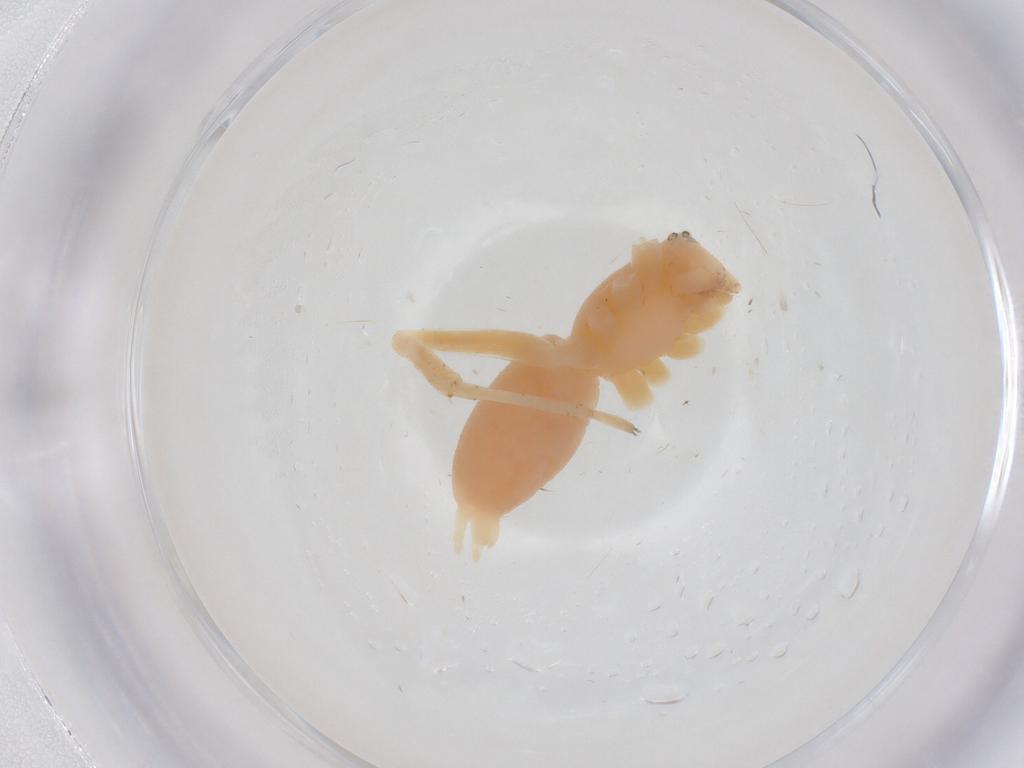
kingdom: Animalia
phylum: Arthropoda
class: Arachnida
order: Araneae
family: Anyphaenidae
